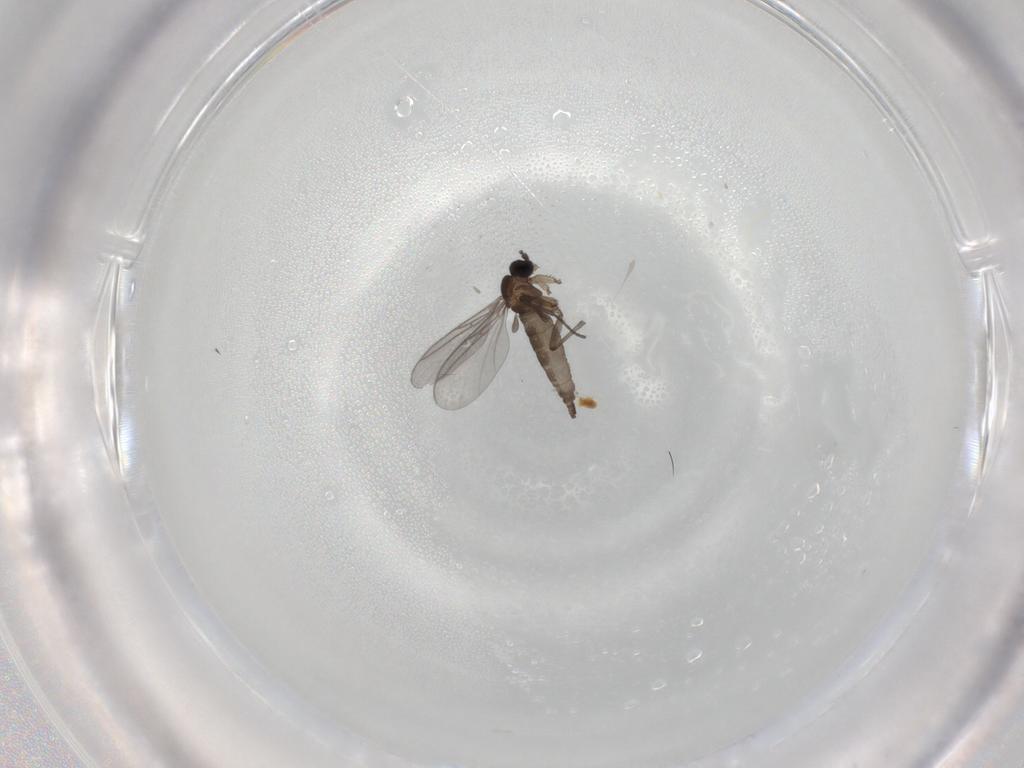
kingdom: Animalia
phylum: Arthropoda
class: Insecta
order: Diptera
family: Sciaridae
